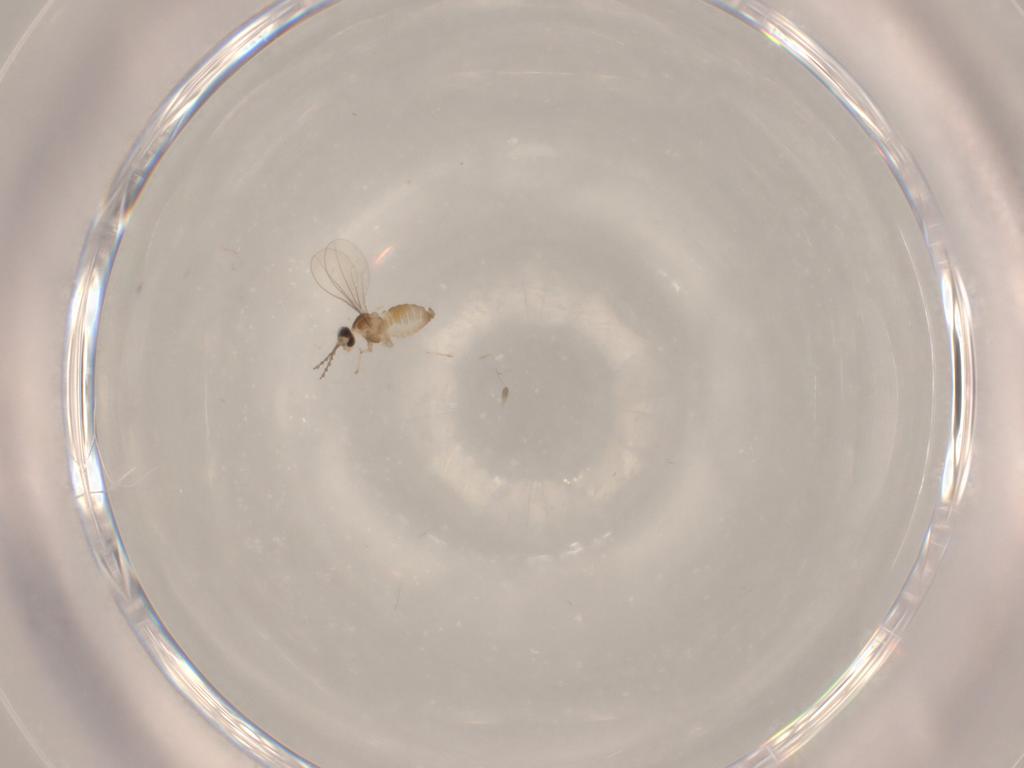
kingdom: Animalia
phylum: Arthropoda
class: Insecta
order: Diptera
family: Cecidomyiidae
